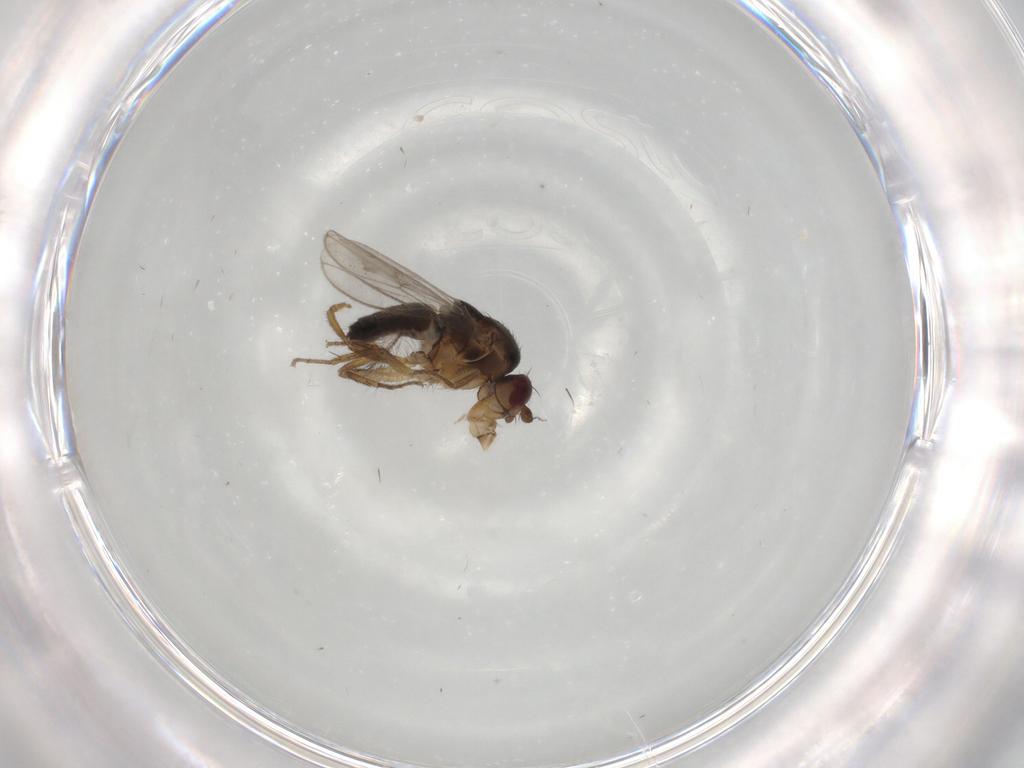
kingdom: Animalia
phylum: Arthropoda
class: Insecta
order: Diptera
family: Sphaeroceridae
